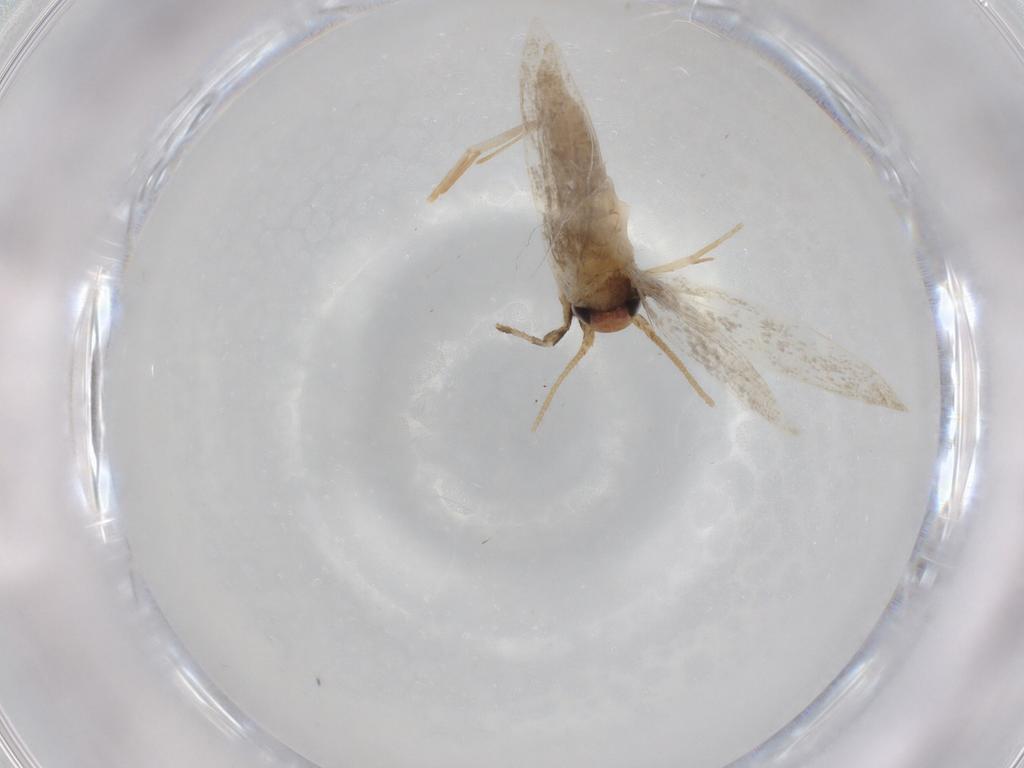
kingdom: Animalia
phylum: Arthropoda
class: Insecta
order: Lepidoptera
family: Cosmopterigidae
